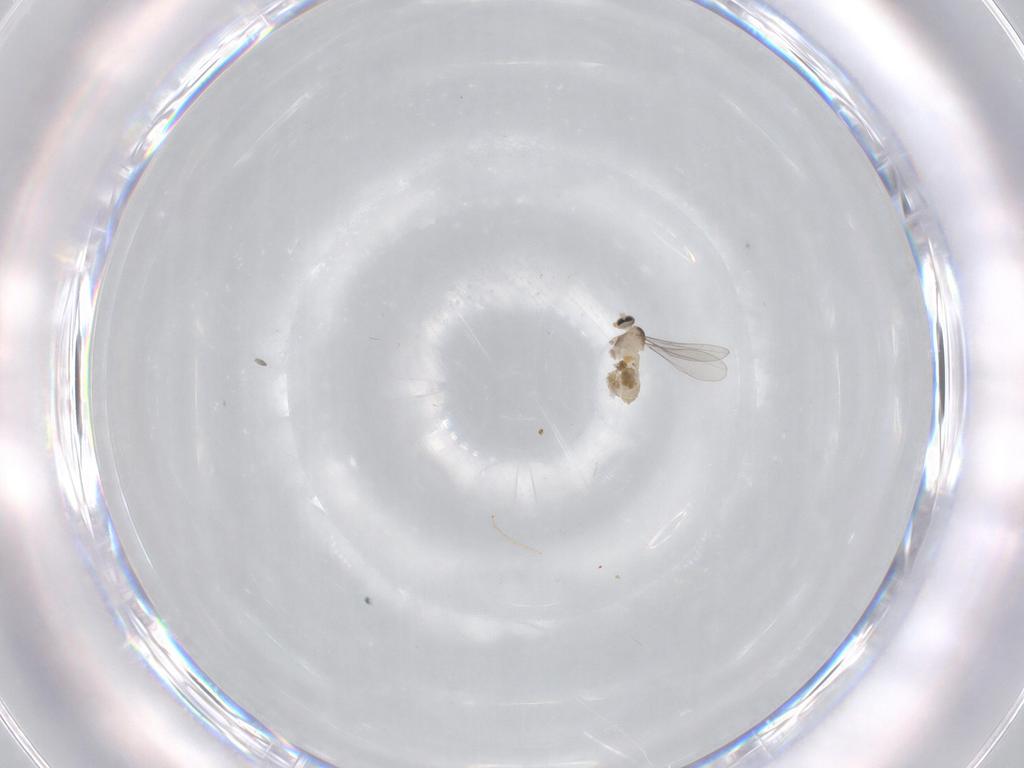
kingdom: Animalia
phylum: Arthropoda
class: Insecta
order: Diptera
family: Cecidomyiidae
